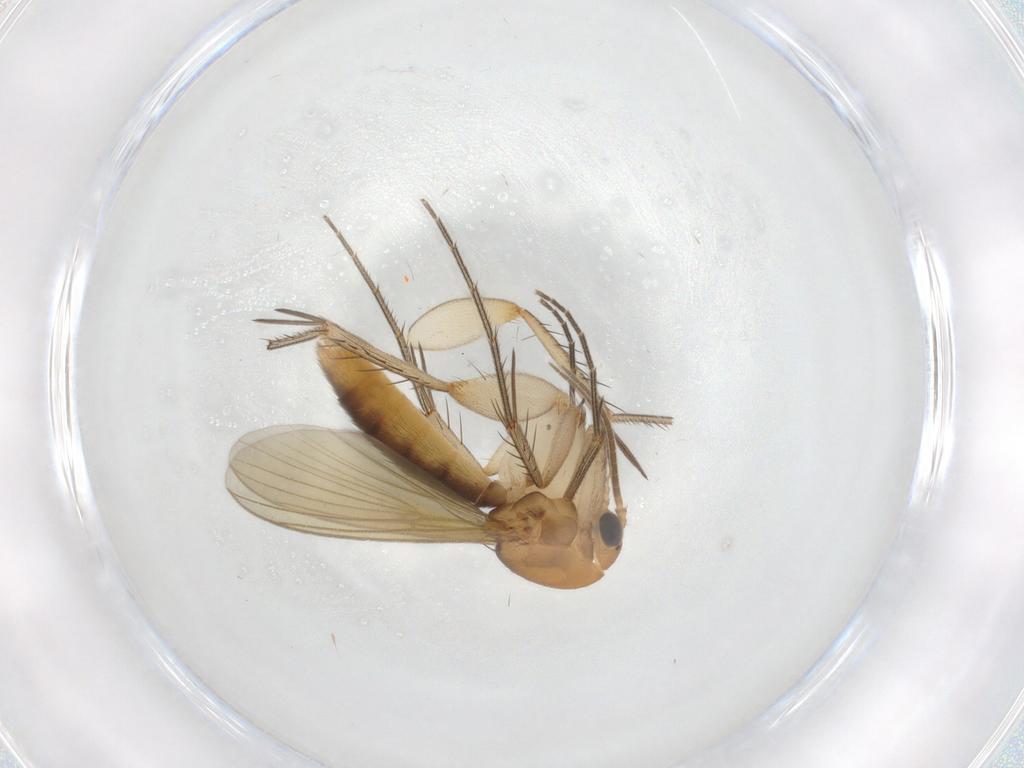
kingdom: Animalia
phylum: Arthropoda
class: Insecta
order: Diptera
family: Mycetophilidae
